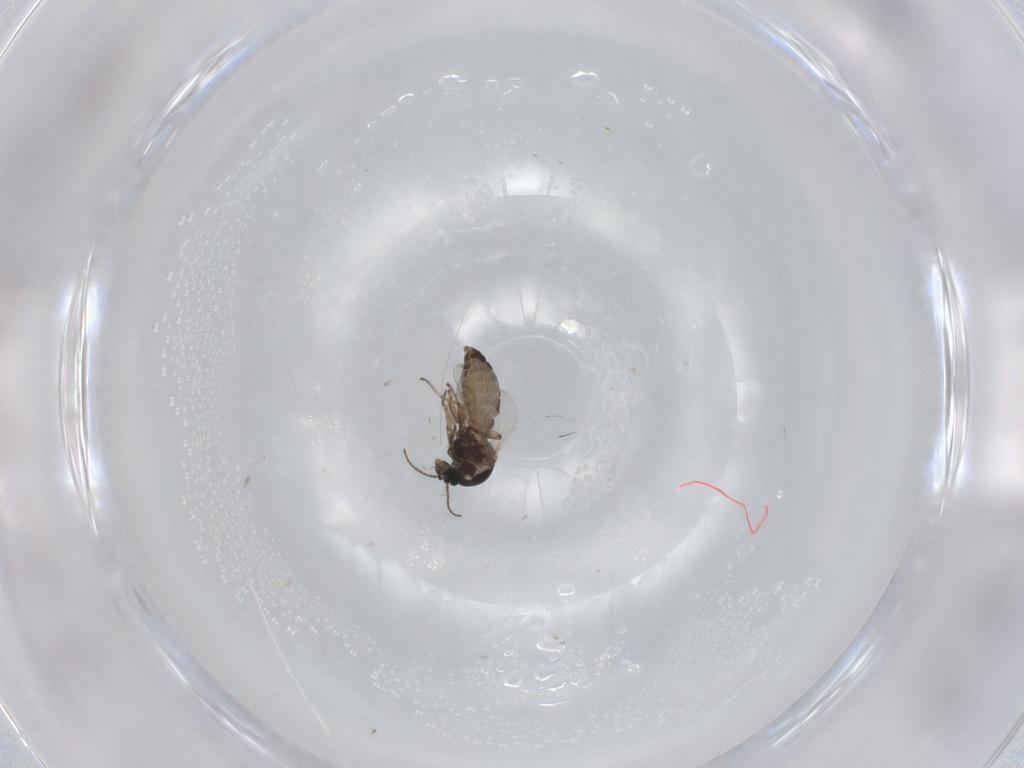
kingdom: Animalia
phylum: Arthropoda
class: Insecta
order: Diptera
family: Ceratopogonidae
